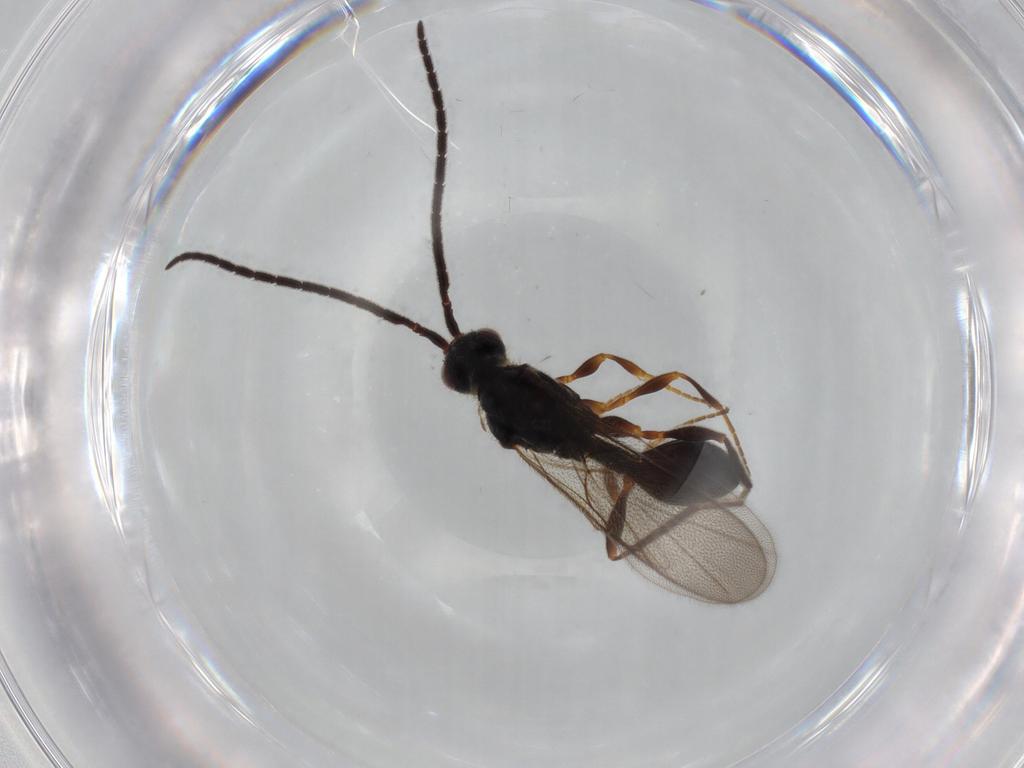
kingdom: Animalia
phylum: Arthropoda
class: Insecta
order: Hymenoptera
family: Diapriidae
